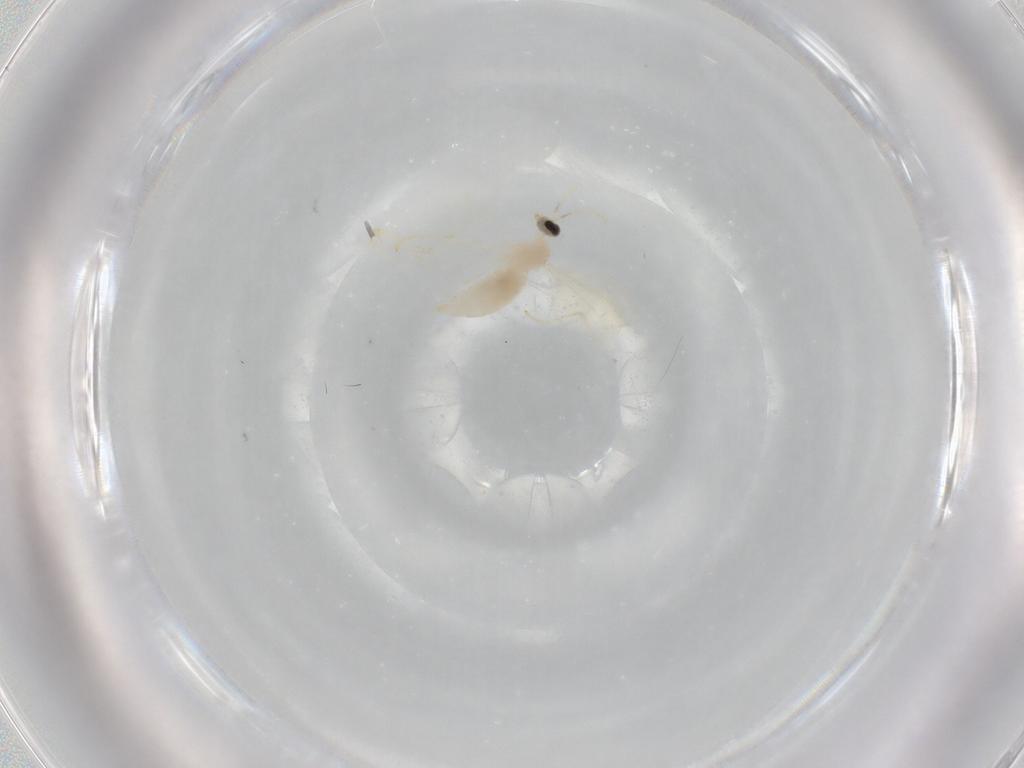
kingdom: Animalia
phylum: Arthropoda
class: Insecta
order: Diptera
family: Cecidomyiidae
